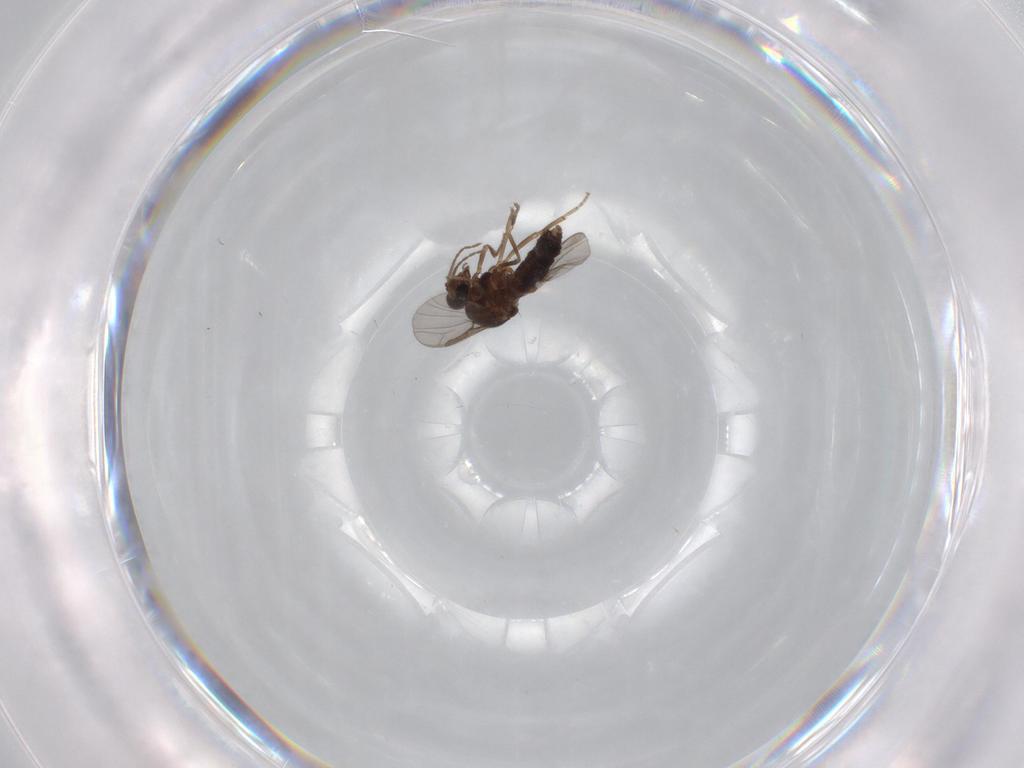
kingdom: Animalia
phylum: Arthropoda
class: Insecta
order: Diptera
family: Ceratopogonidae
